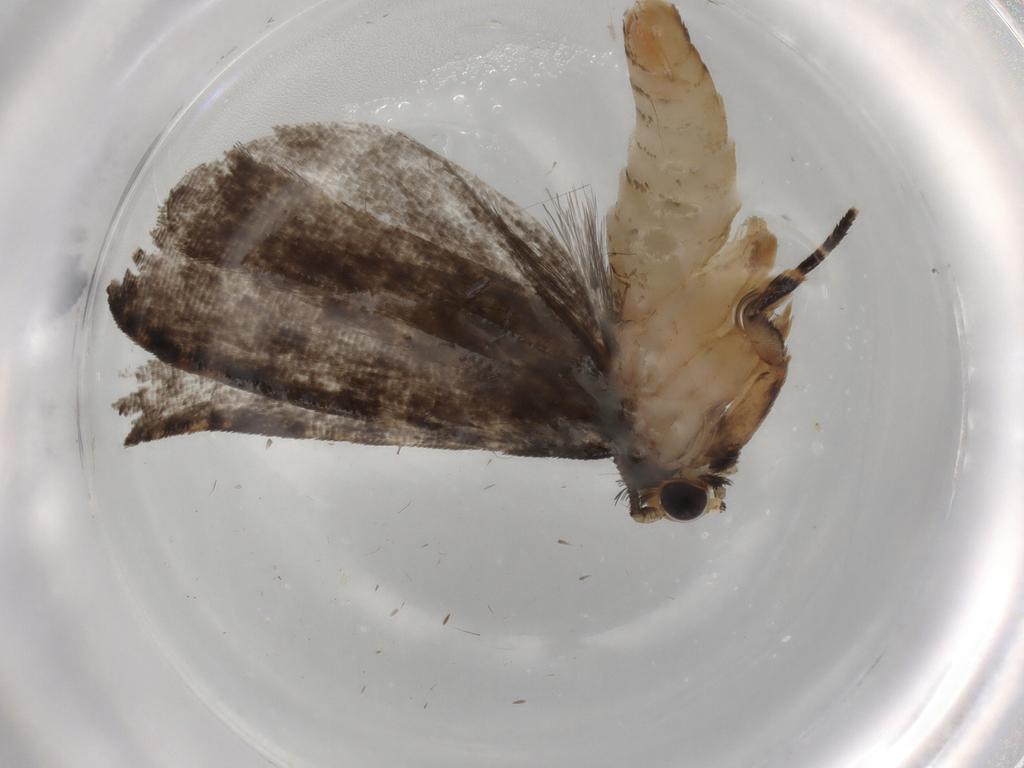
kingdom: Animalia
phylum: Arthropoda
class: Insecta
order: Lepidoptera
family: Tineidae
